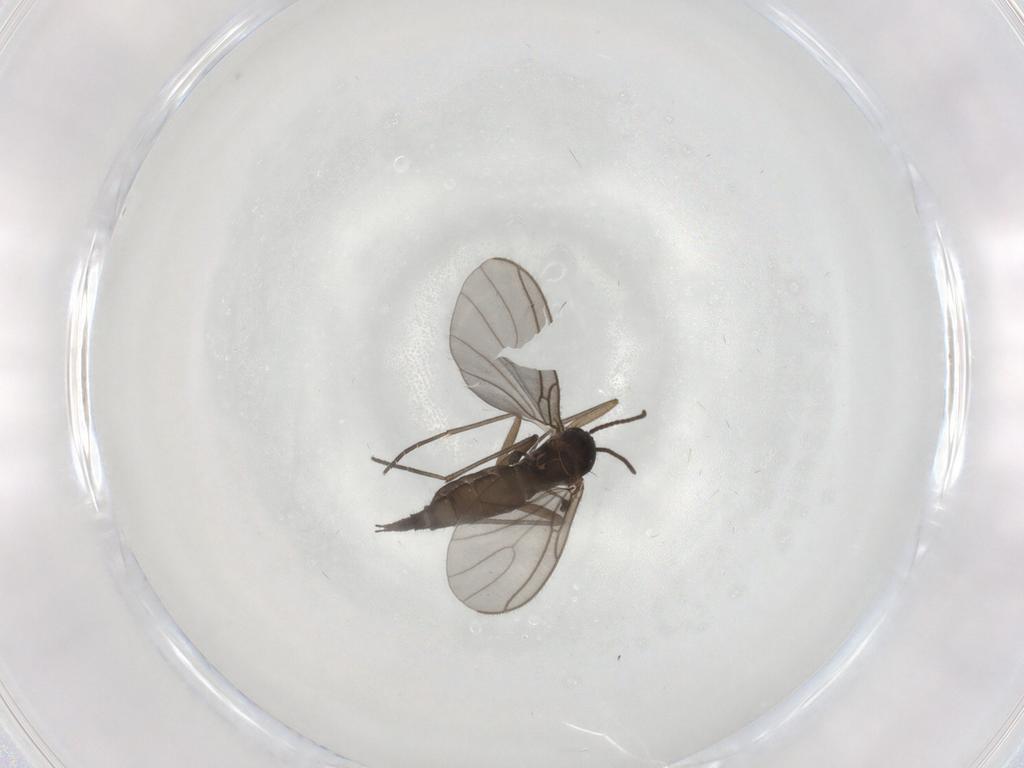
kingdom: Animalia
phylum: Arthropoda
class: Insecta
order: Diptera
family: Sciaridae
